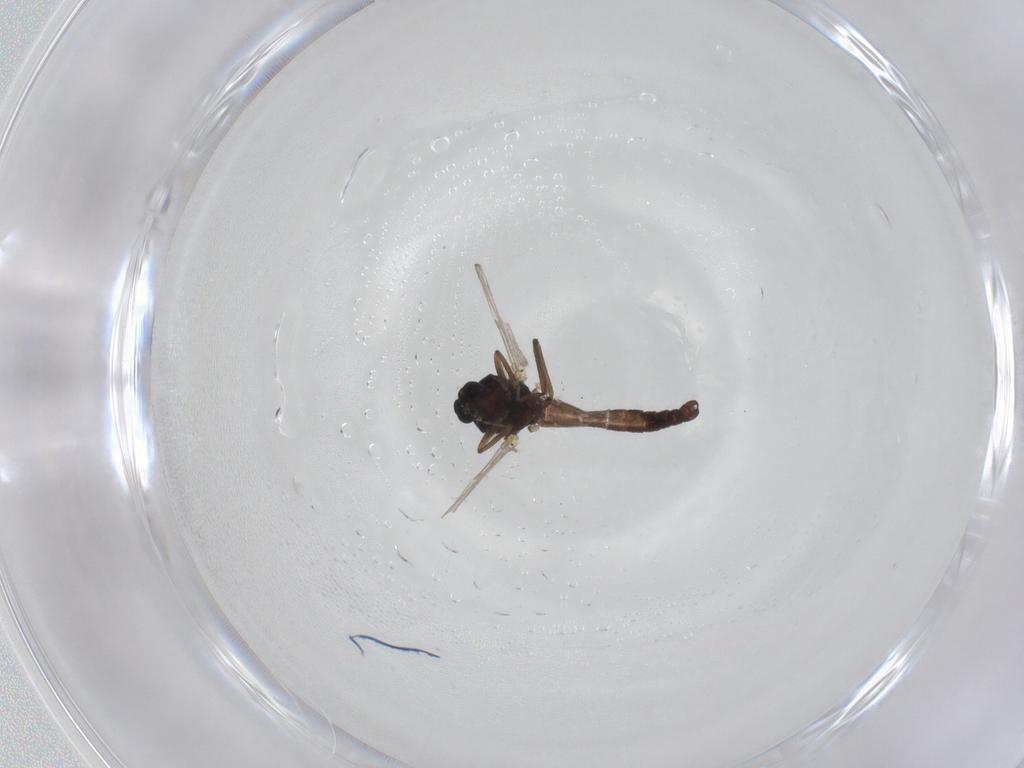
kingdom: Animalia
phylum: Arthropoda
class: Insecta
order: Diptera
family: Ceratopogonidae
